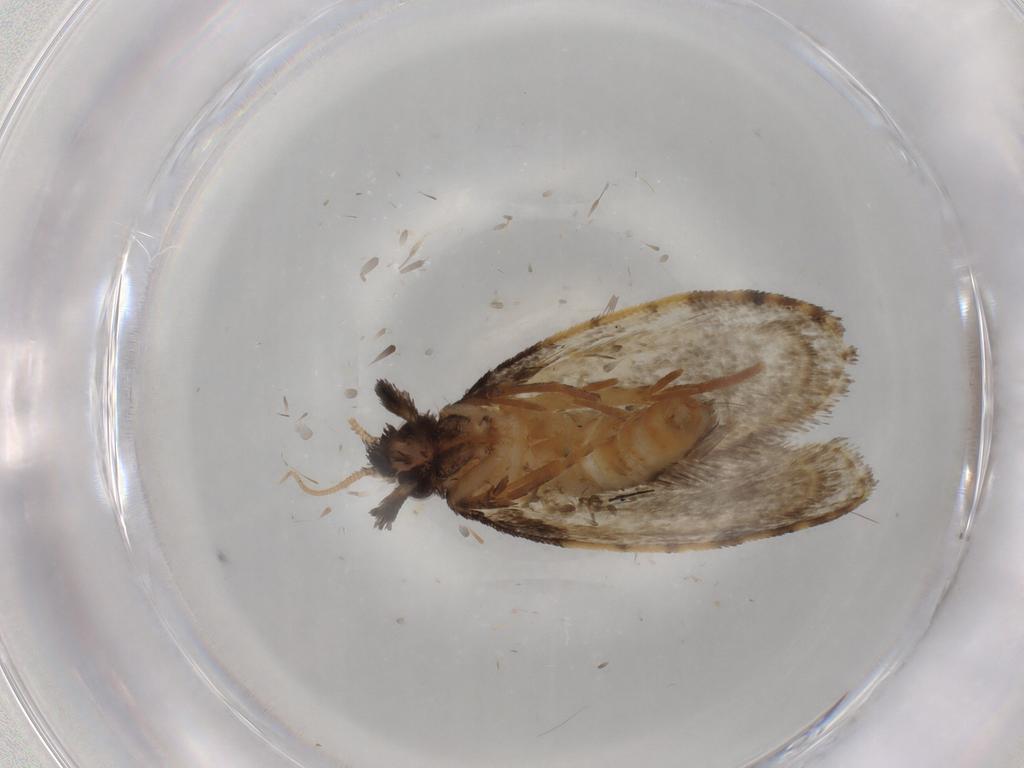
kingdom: Animalia
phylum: Arthropoda
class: Insecta
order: Lepidoptera
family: Psychidae
